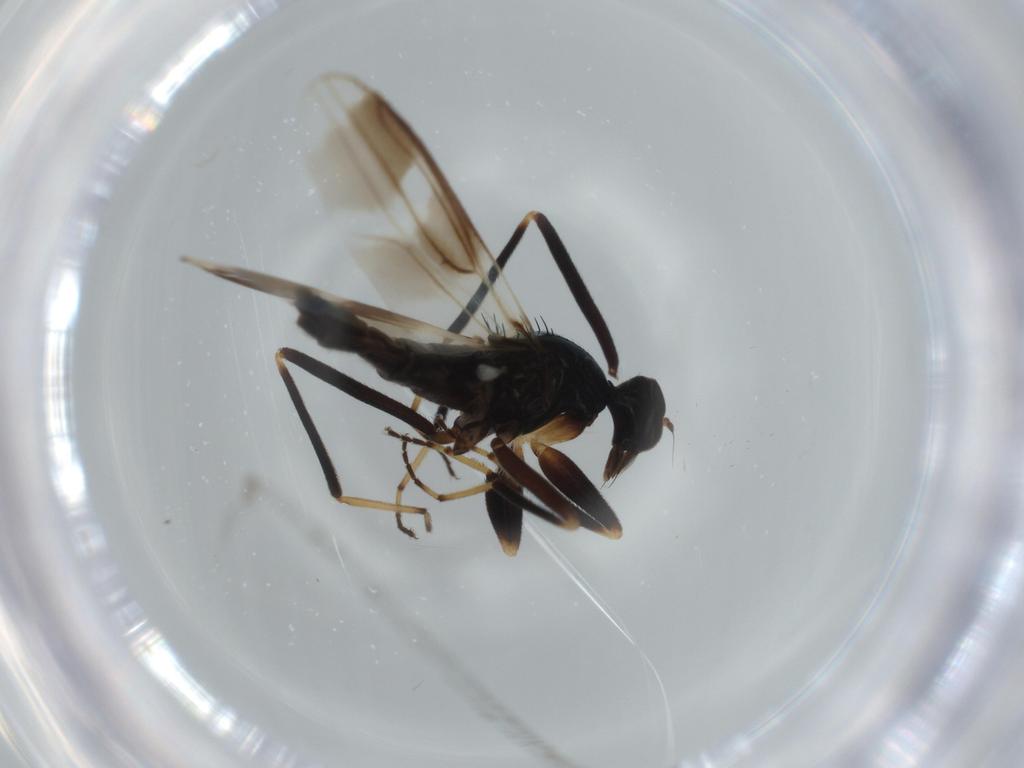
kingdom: Animalia
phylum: Arthropoda
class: Insecta
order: Diptera
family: Hybotidae
